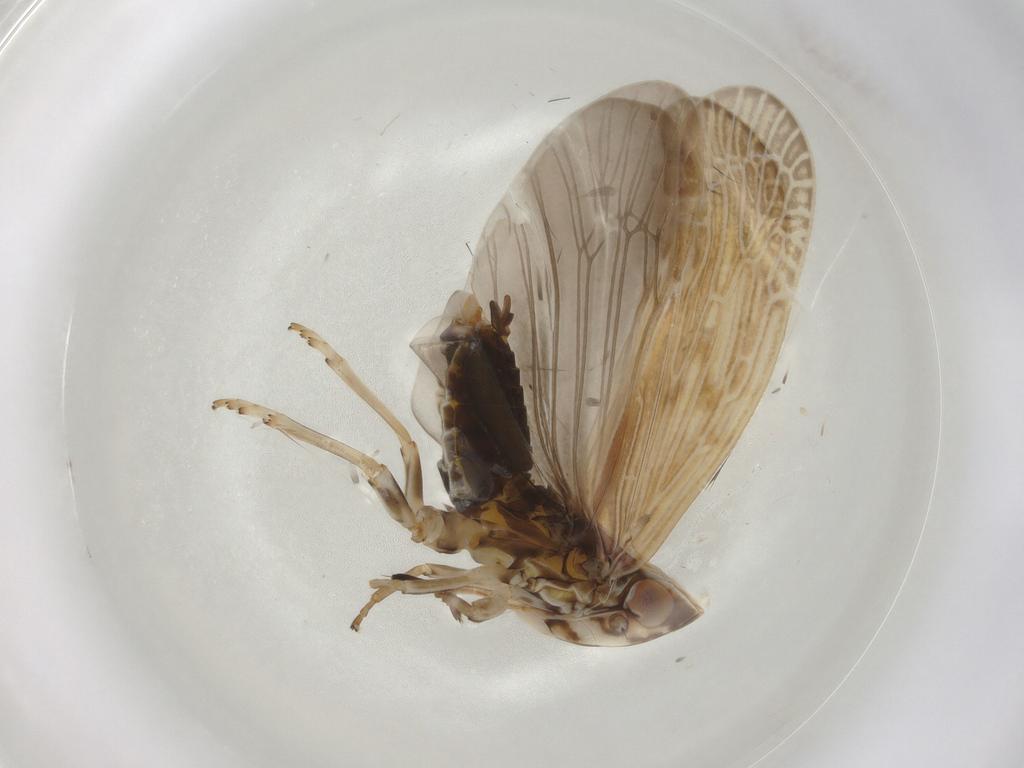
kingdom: Animalia
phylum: Arthropoda
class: Insecta
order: Hemiptera
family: Achilidae
